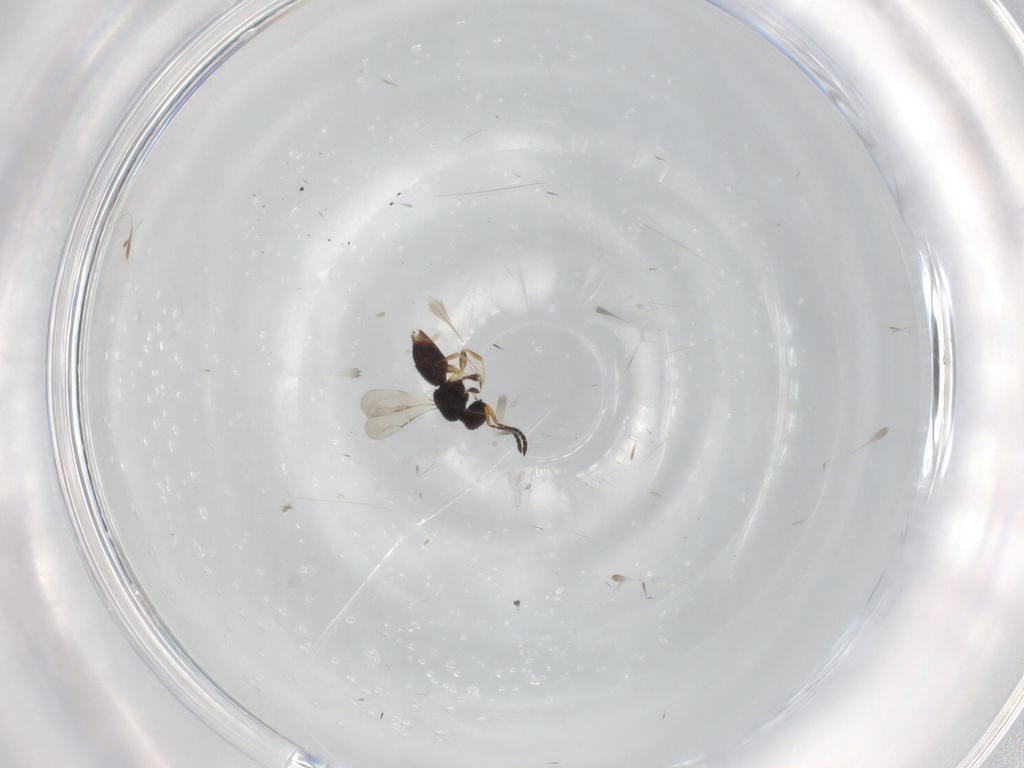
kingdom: Animalia
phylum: Arthropoda
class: Insecta
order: Hymenoptera
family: Eulophidae
